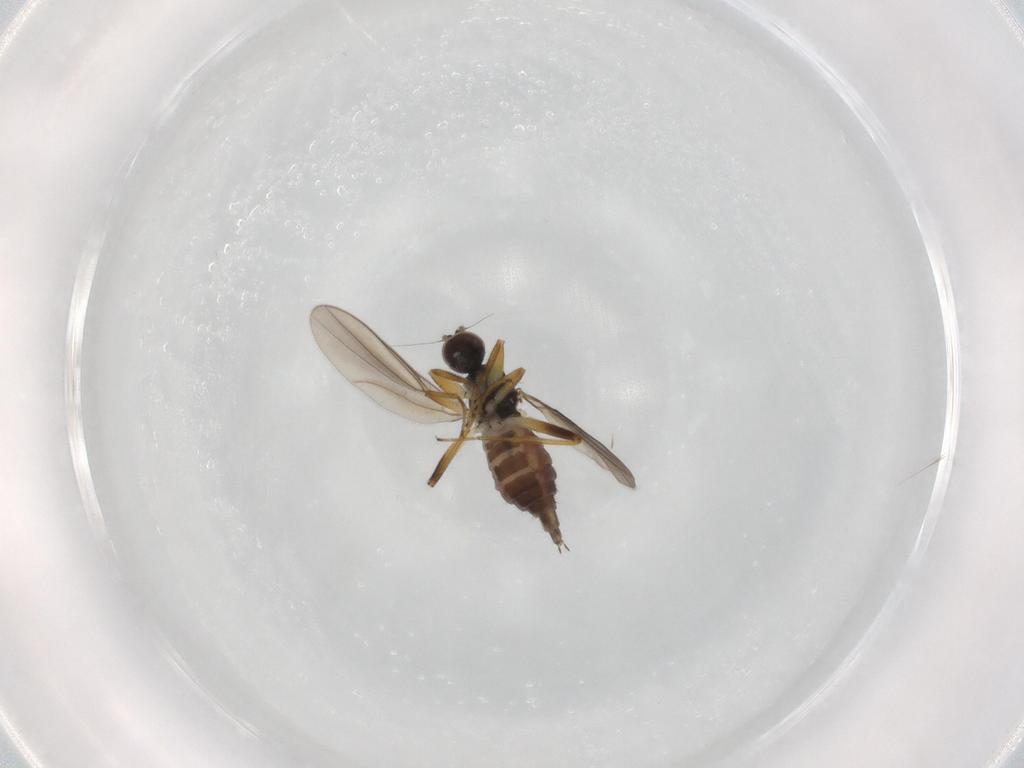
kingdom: Animalia
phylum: Arthropoda
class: Insecta
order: Diptera
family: Hybotidae
